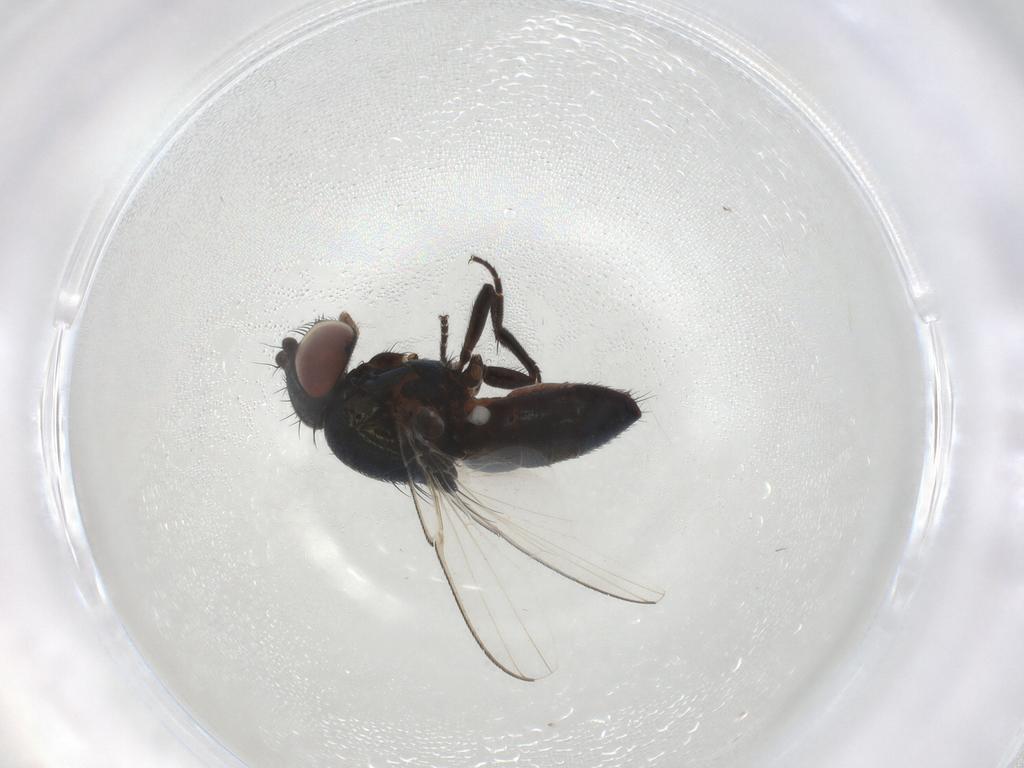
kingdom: Animalia
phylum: Arthropoda
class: Insecta
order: Diptera
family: Milichiidae
